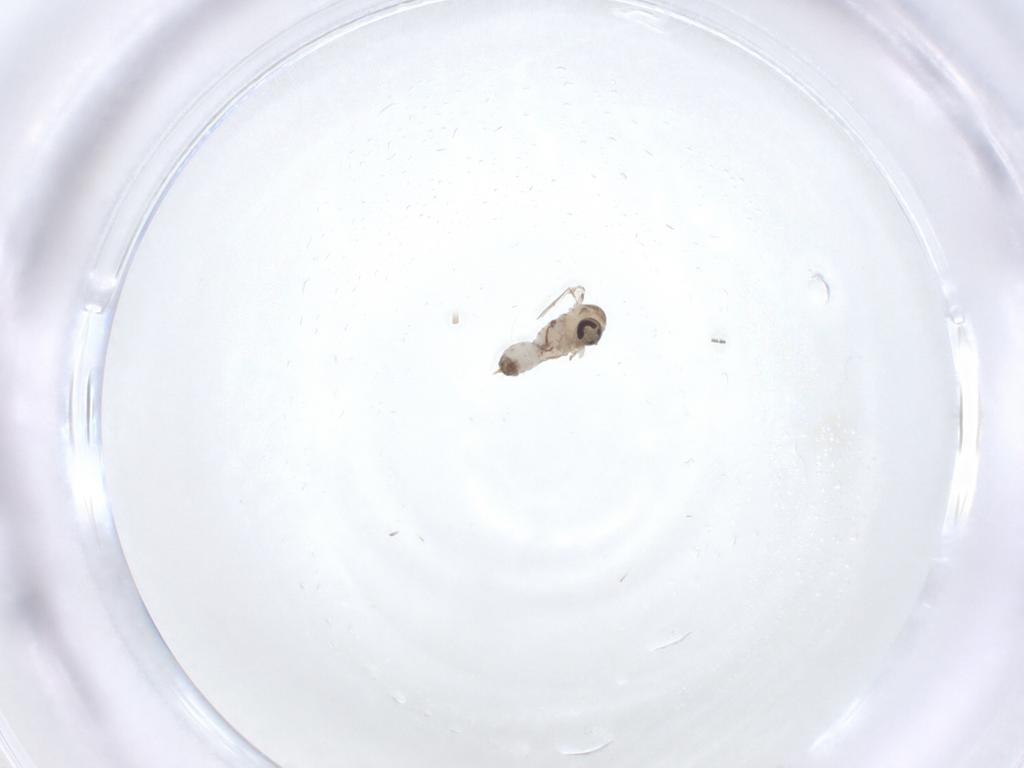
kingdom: Animalia
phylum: Arthropoda
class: Insecta
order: Diptera
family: Psychodidae
